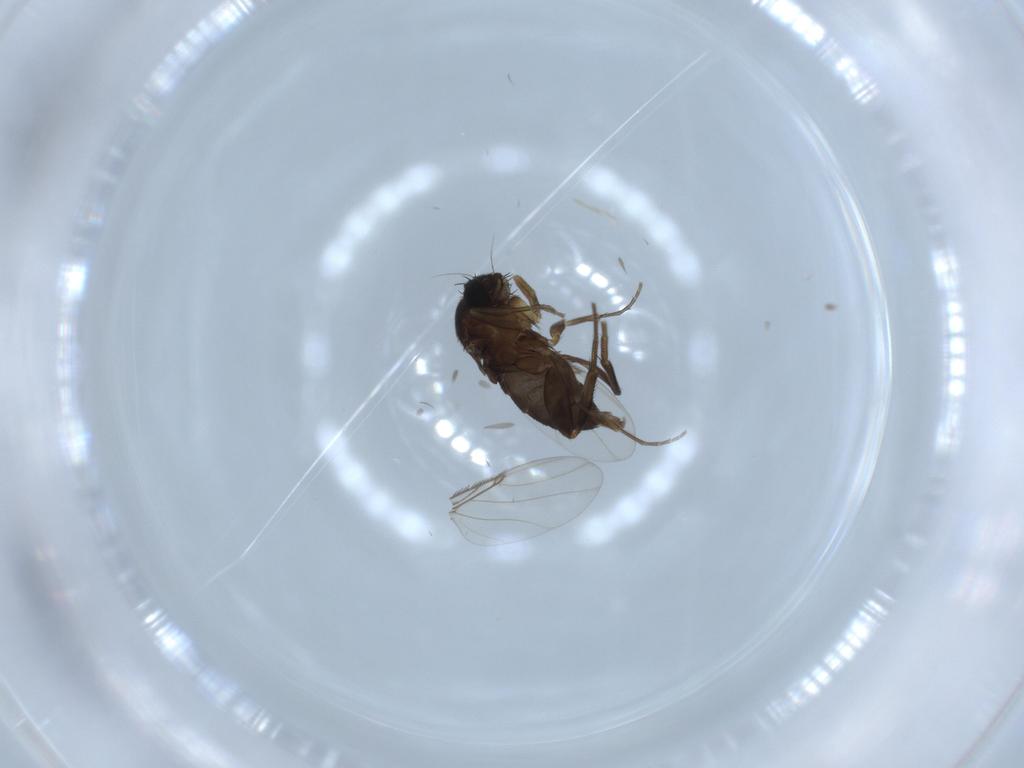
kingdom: Animalia
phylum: Arthropoda
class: Insecta
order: Diptera
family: Phoridae
